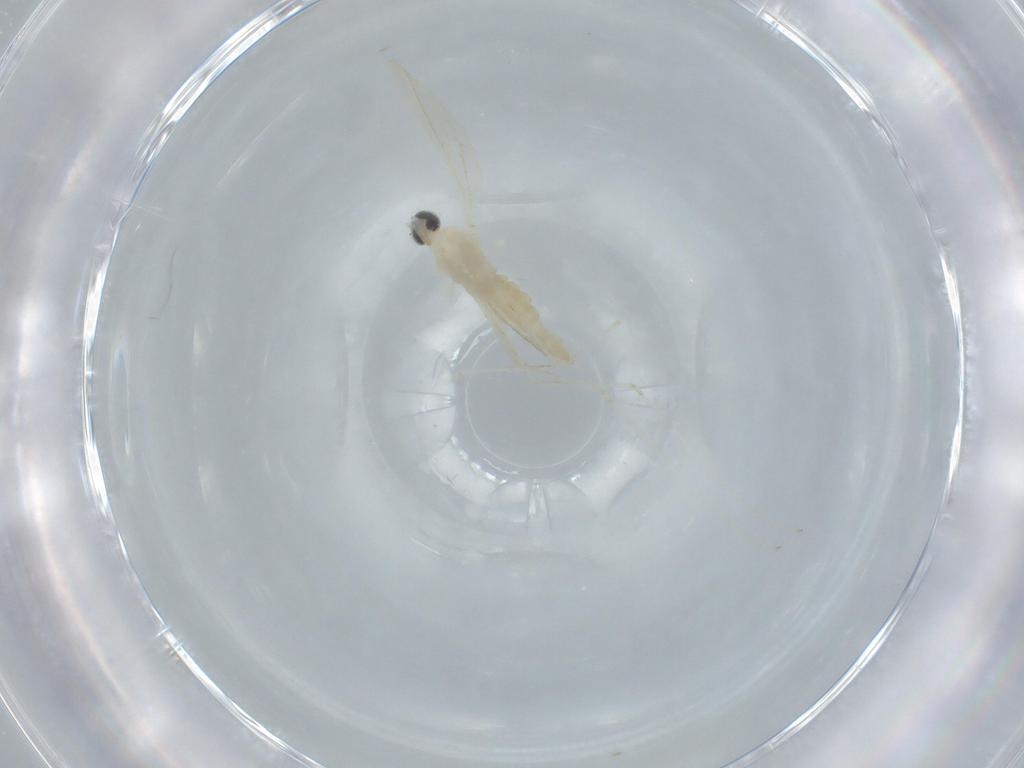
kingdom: Animalia
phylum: Arthropoda
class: Insecta
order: Diptera
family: Cecidomyiidae
